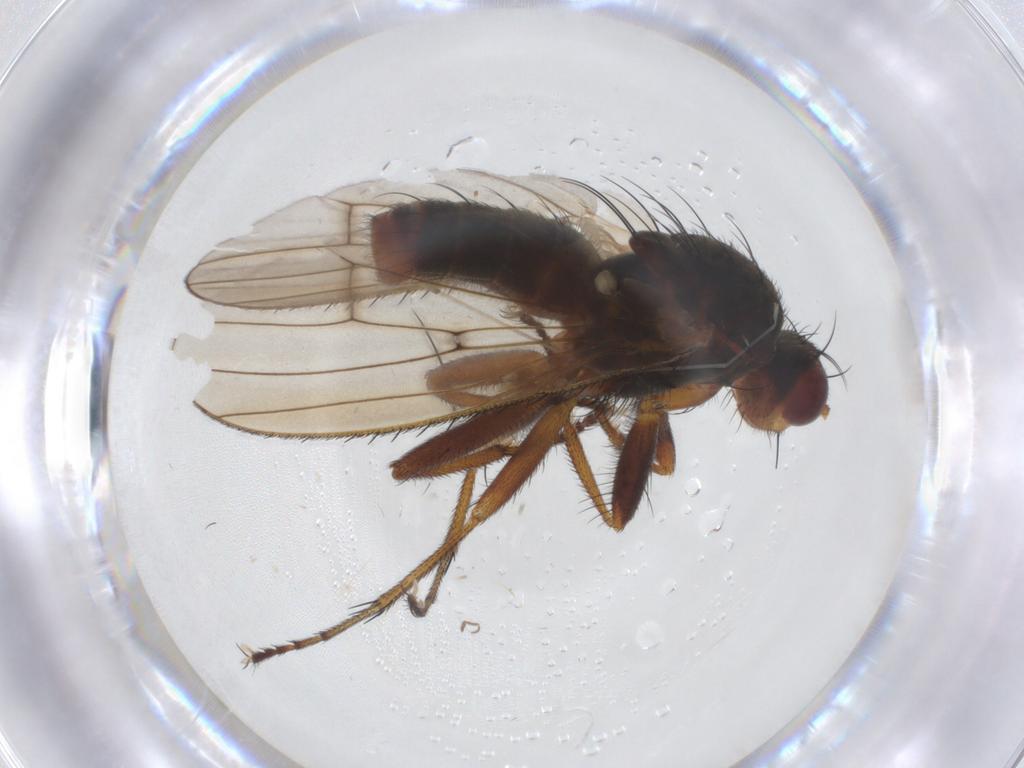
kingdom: Animalia
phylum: Arthropoda
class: Insecta
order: Diptera
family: Heleomyzidae
